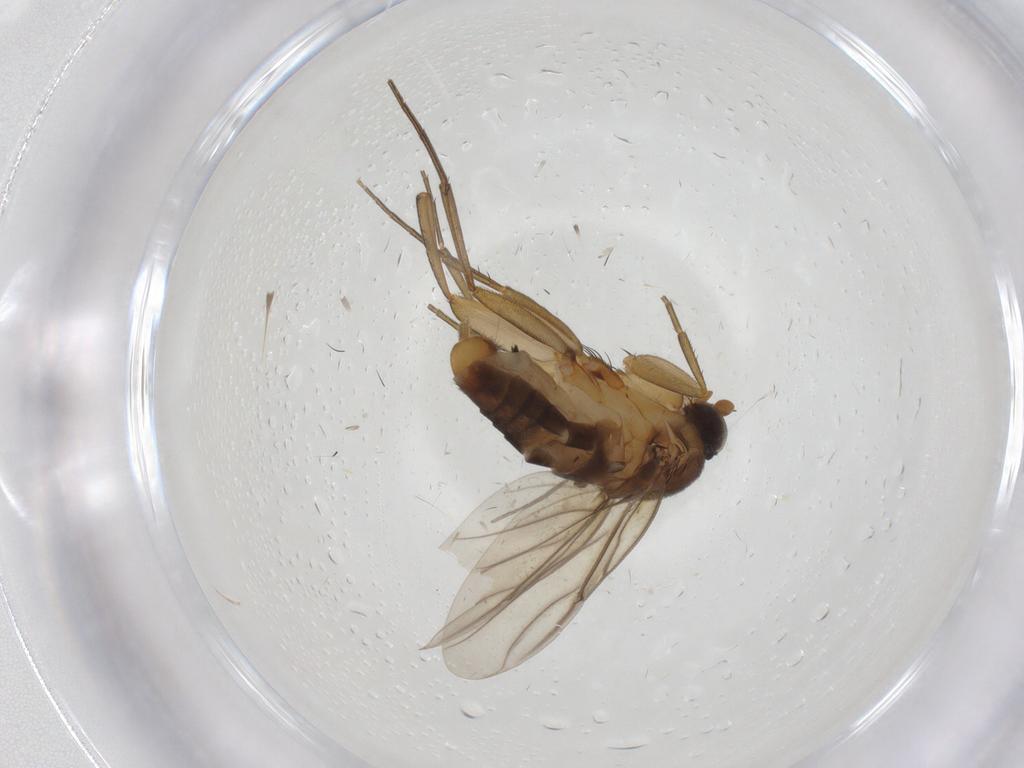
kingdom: Animalia
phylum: Arthropoda
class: Insecta
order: Diptera
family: Phoridae
